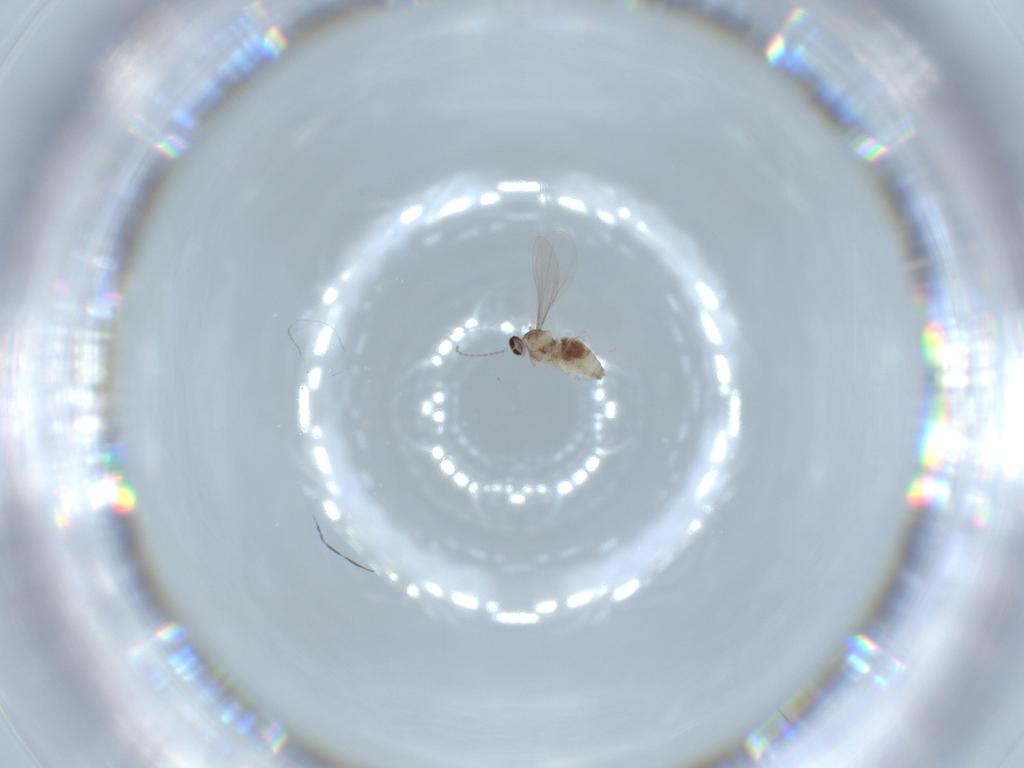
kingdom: Animalia
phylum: Arthropoda
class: Insecta
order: Diptera
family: Cecidomyiidae
